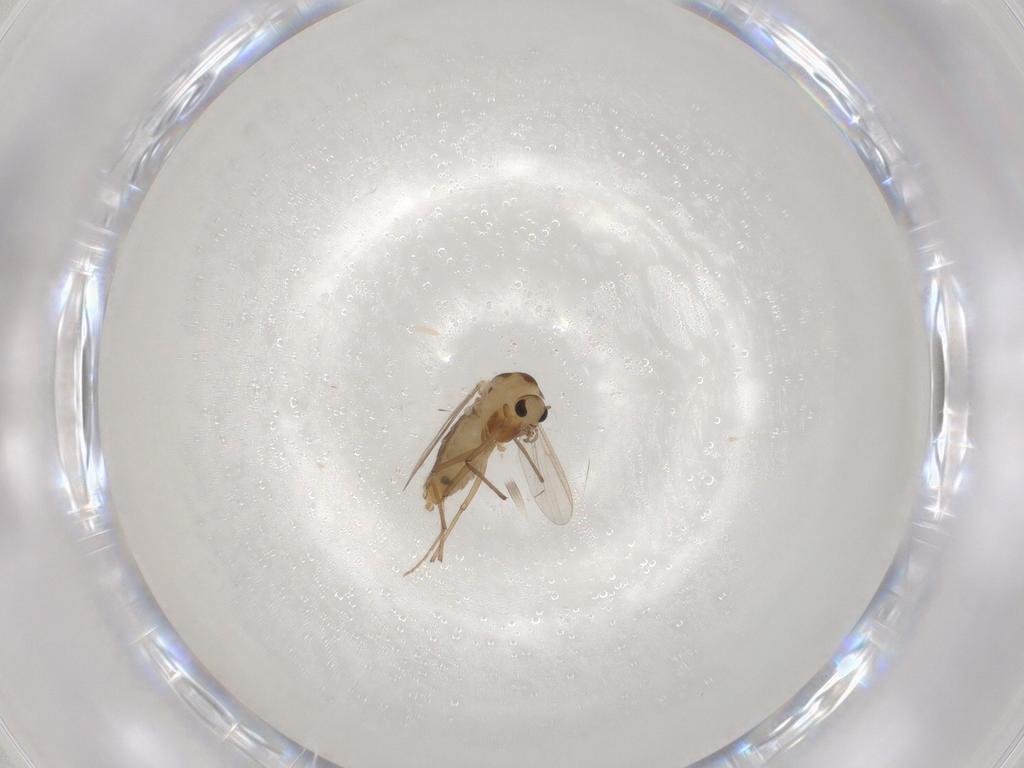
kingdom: Animalia
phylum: Arthropoda
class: Insecta
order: Diptera
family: Chironomidae
